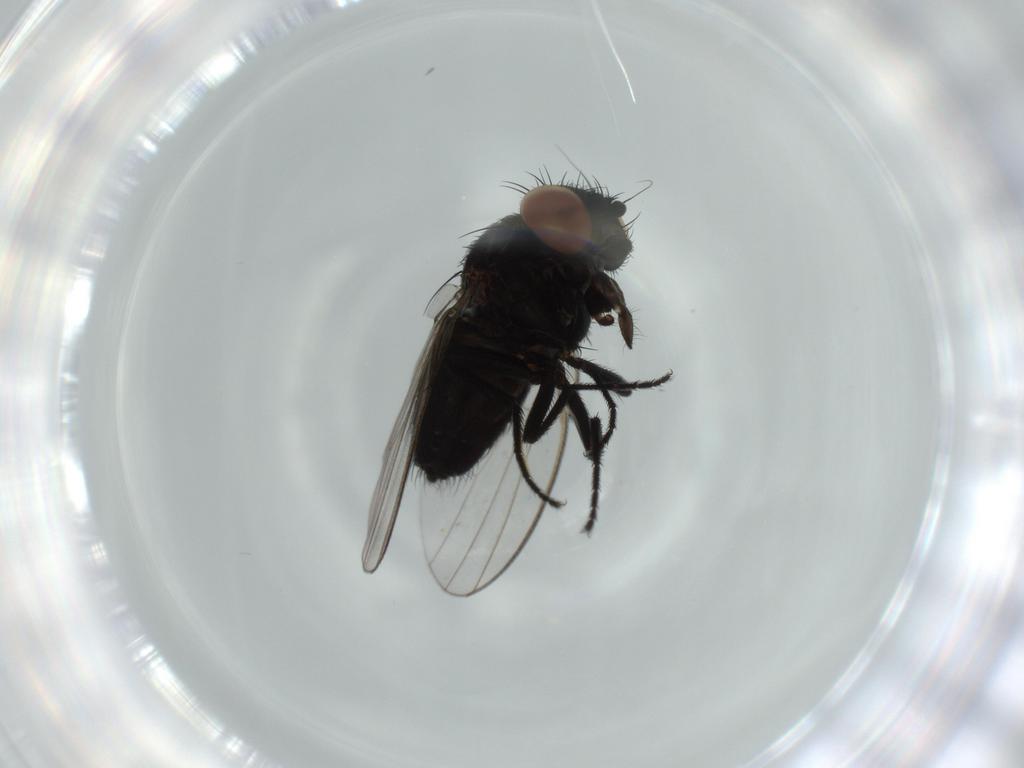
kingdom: Animalia
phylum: Arthropoda
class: Insecta
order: Diptera
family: Milichiidae
